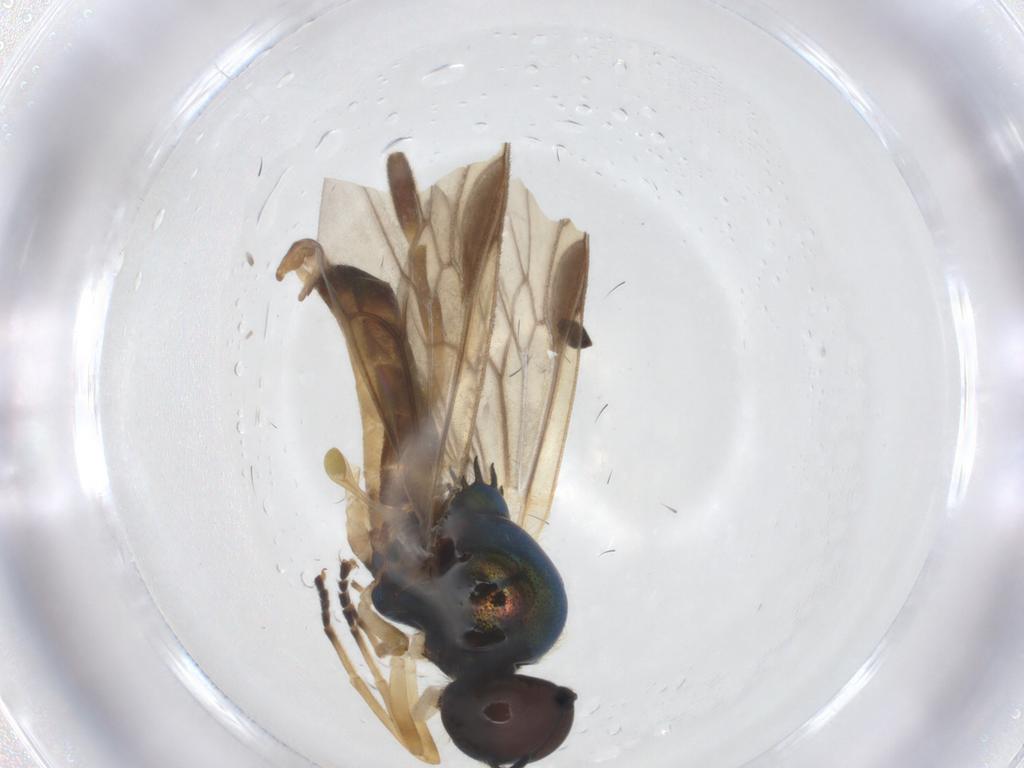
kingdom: Animalia
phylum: Arthropoda
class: Insecta
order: Diptera
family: Stratiomyidae
